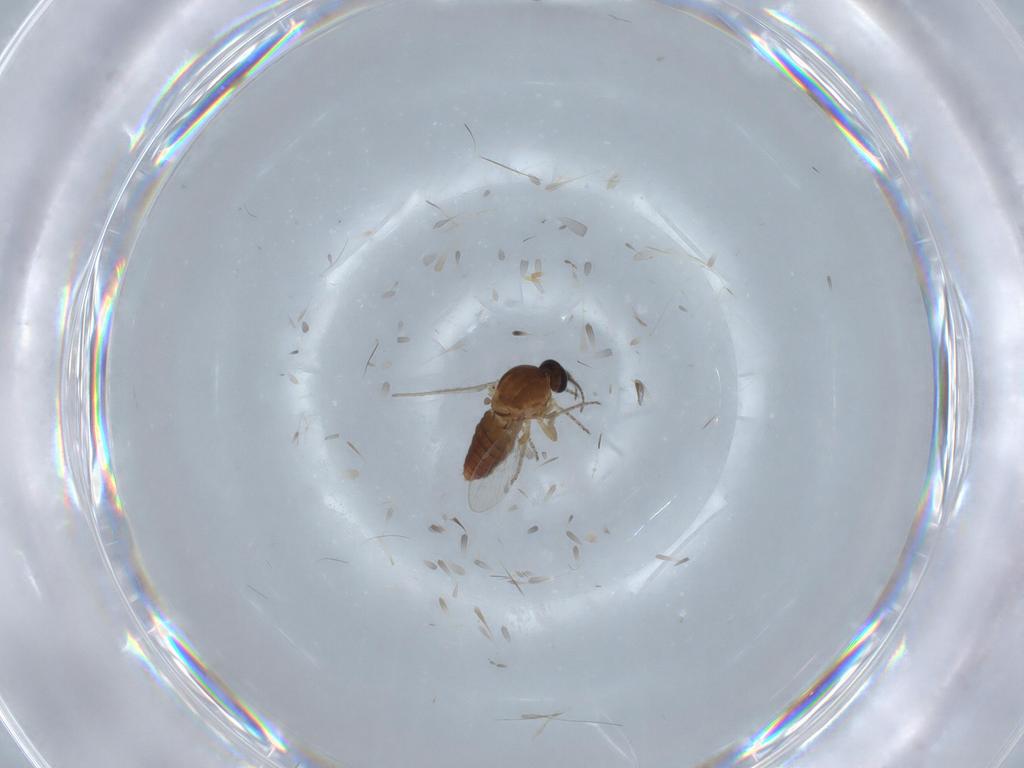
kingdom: Animalia
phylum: Arthropoda
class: Insecta
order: Diptera
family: Ceratopogonidae
